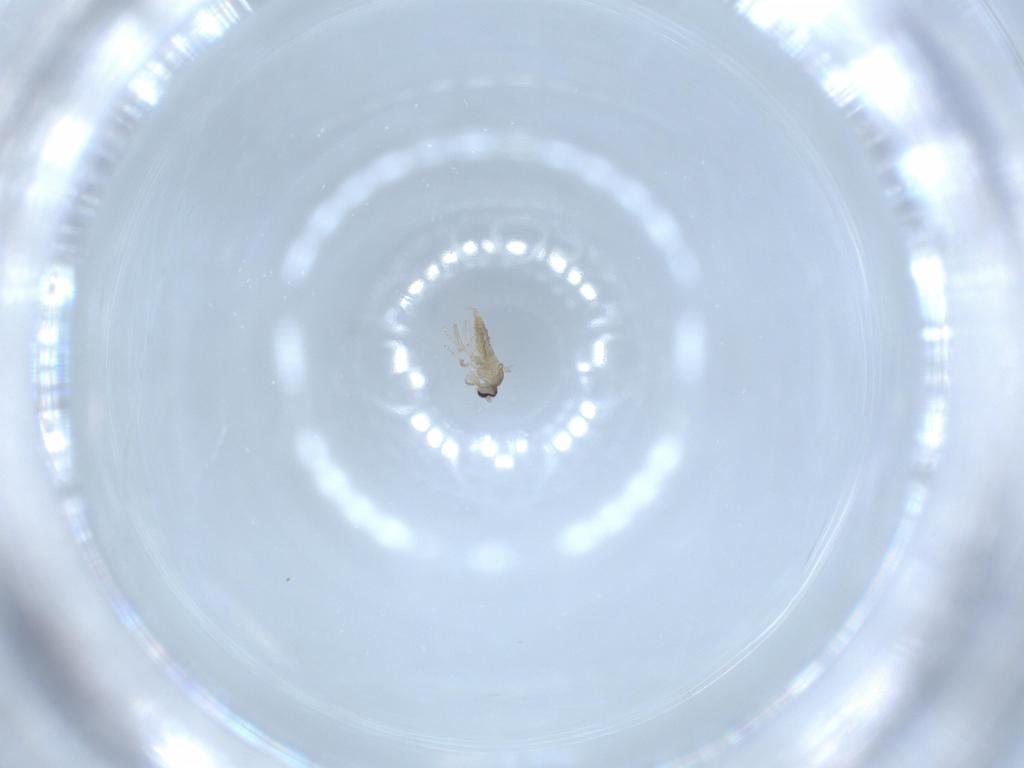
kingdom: Animalia
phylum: Arthropoda
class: Insecta
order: Diptera
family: Cecidomyiidae
